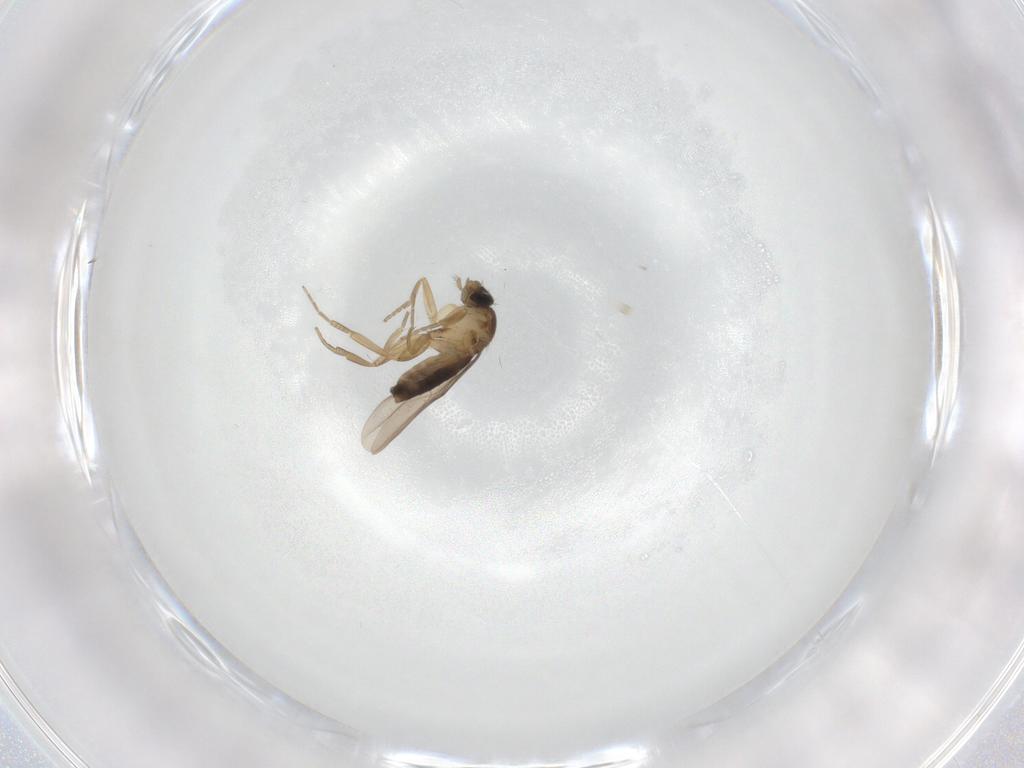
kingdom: Animalia
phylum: Arthropoda
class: Insecta
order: Diptera
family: Phoridae
